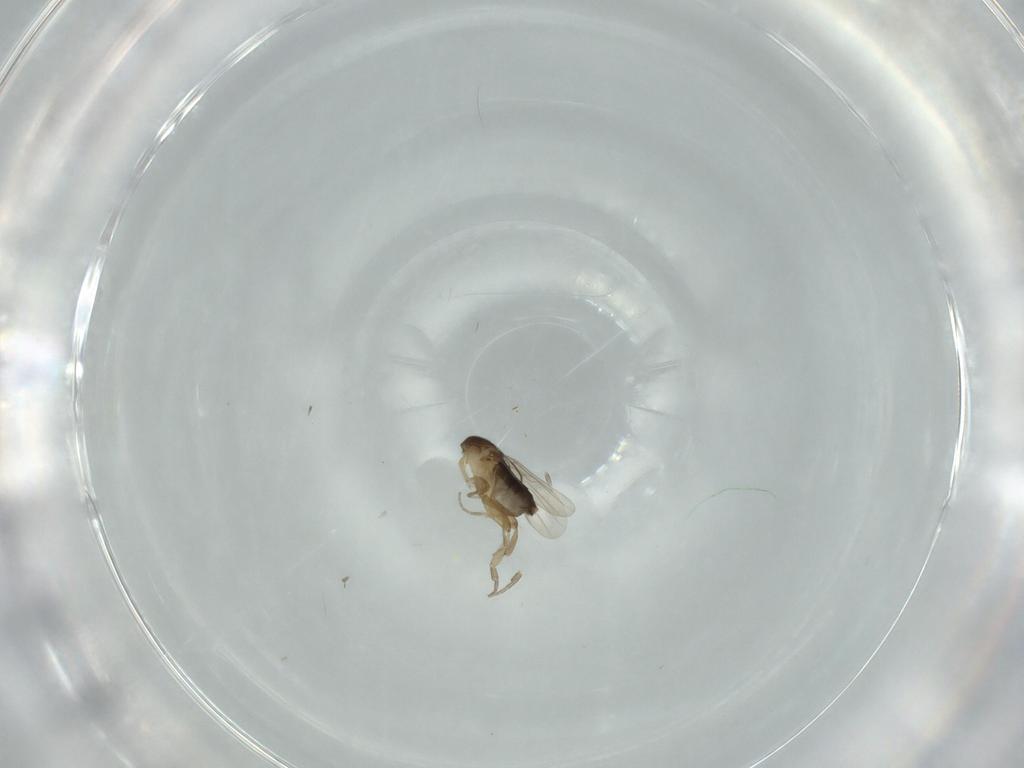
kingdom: Animalia
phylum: Arthropoda
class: Insecta
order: Diptera
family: Phoridae
